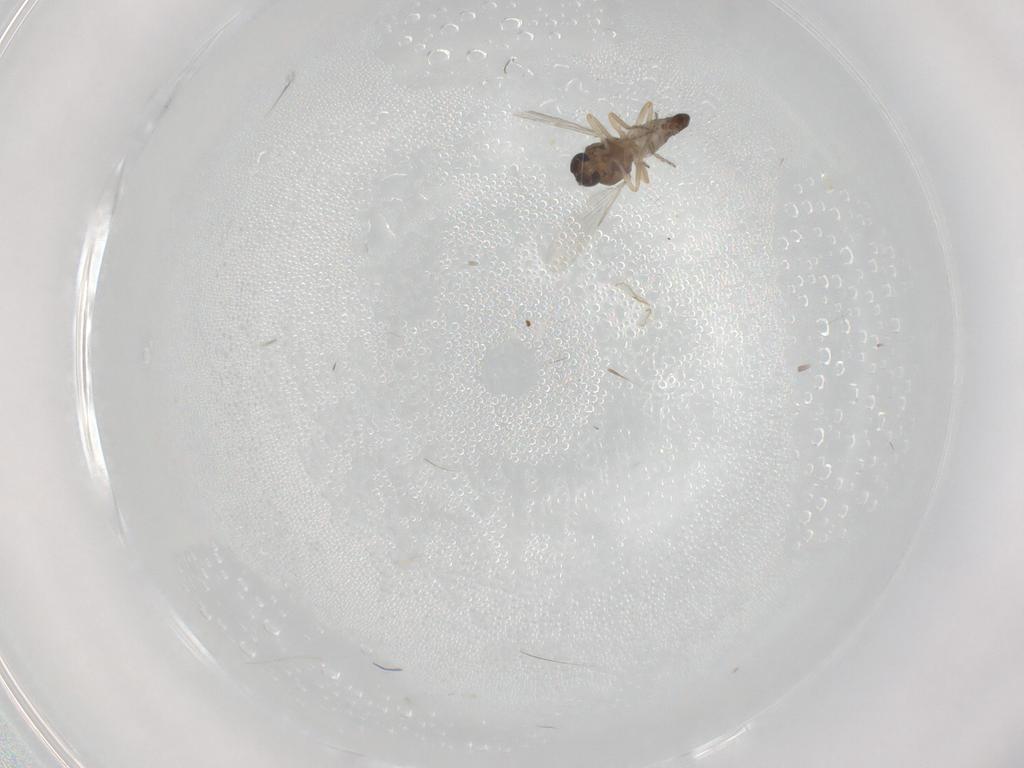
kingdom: Animalia
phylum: Arthropoda
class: Insecta
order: Diptera
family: Ceratopogonidae
